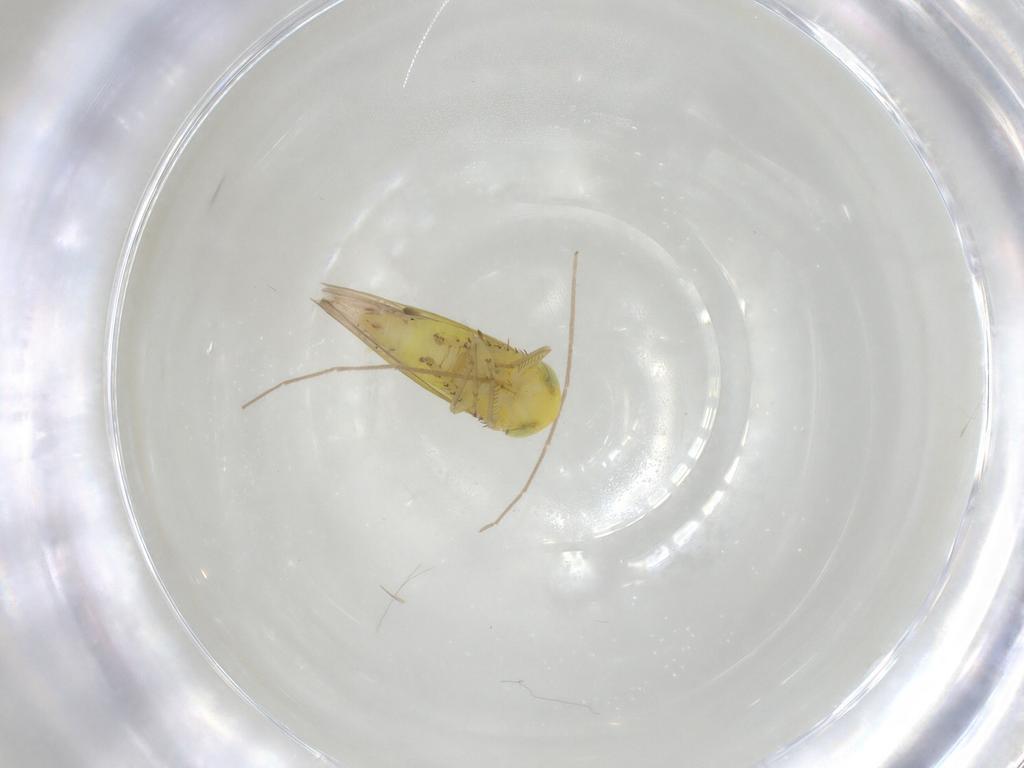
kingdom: Animalia
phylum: Arthropoda
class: Insecta
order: Hemiptera
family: Cicadellidae
